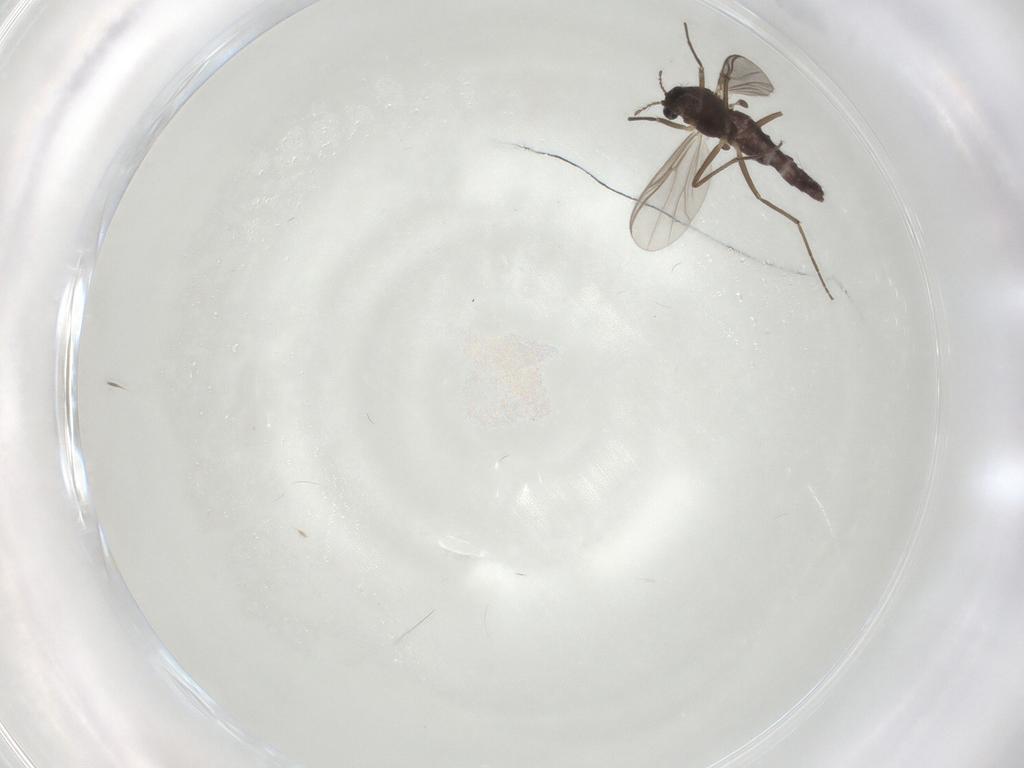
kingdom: Animalia
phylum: Arthropoda
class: Insecta
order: Diptera
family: Chironomidae
